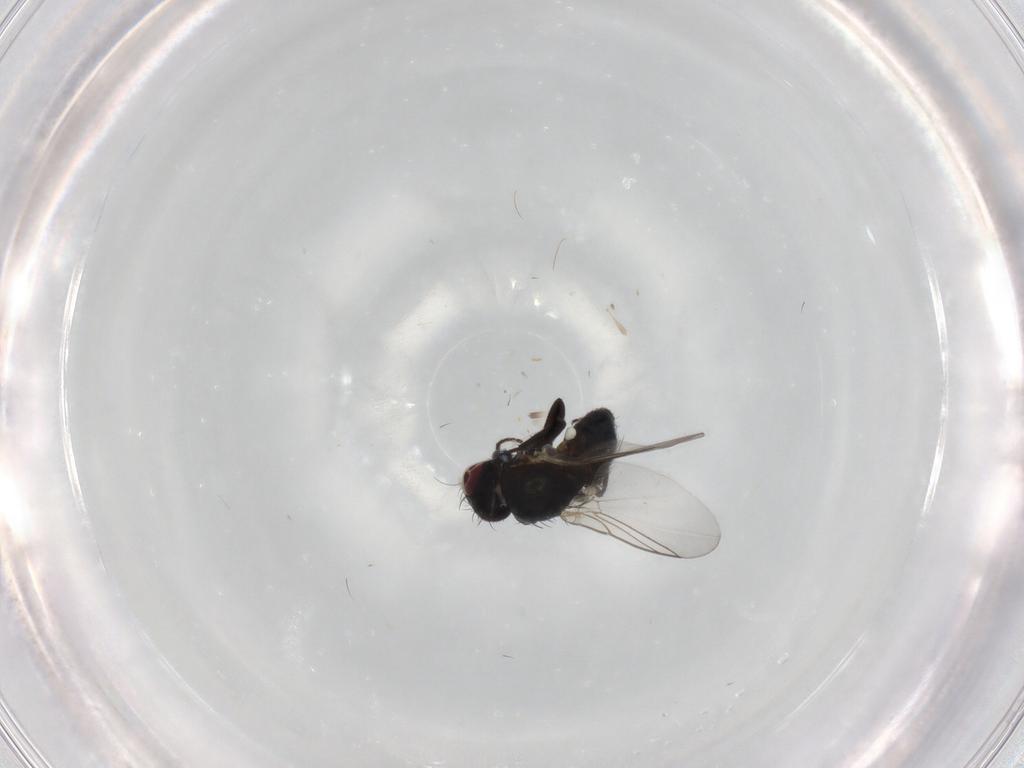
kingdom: Animalia
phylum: Arthropoda
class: Insecta
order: Diptera
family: Agromyzidae
